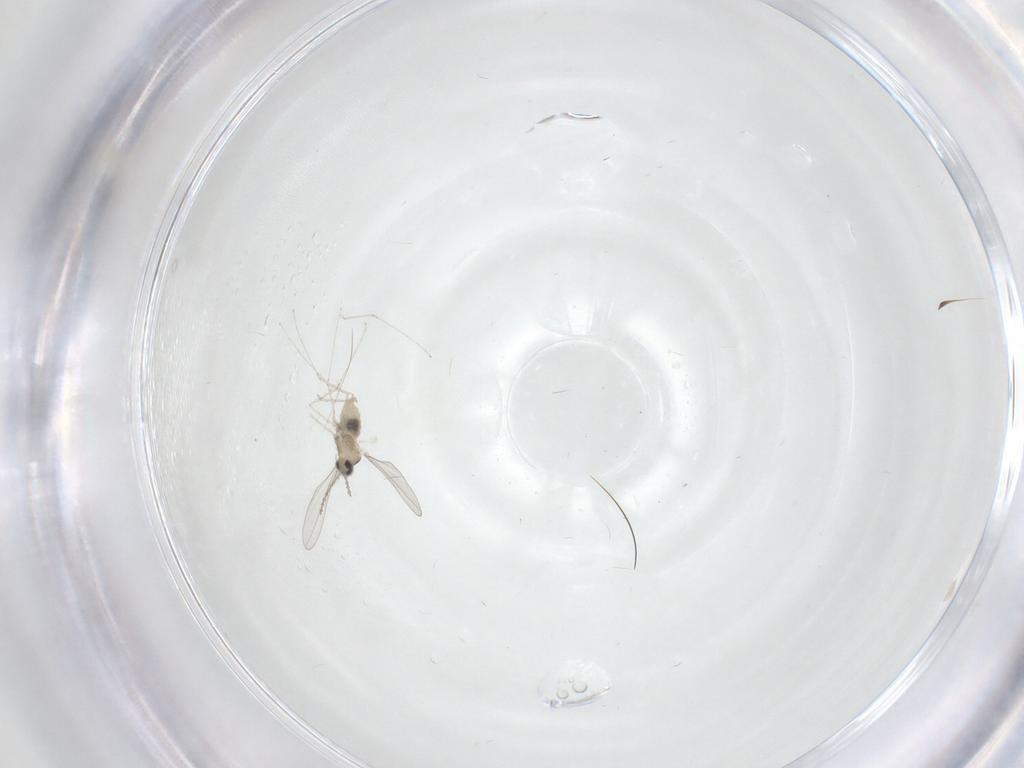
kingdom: Animalia
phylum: Arthropoda
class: Insecta
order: Diptera
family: Cecidomyiidae
